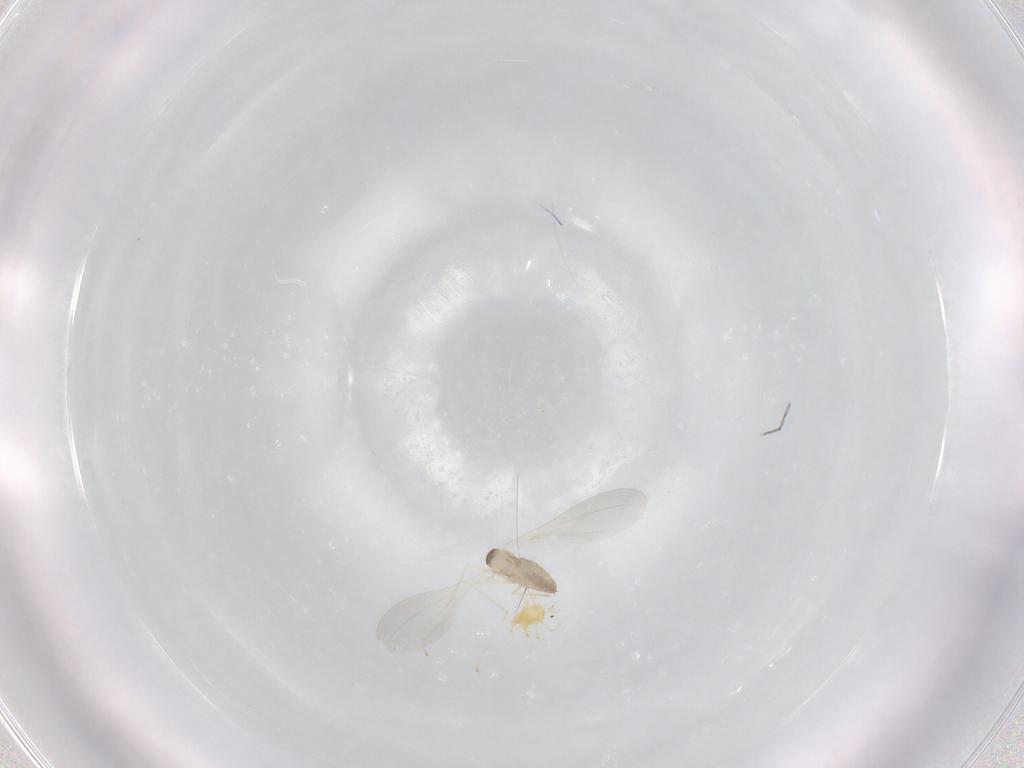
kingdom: Animalia
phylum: Arthropoda
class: Insecta
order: Diptera
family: Cecidomyiidae
